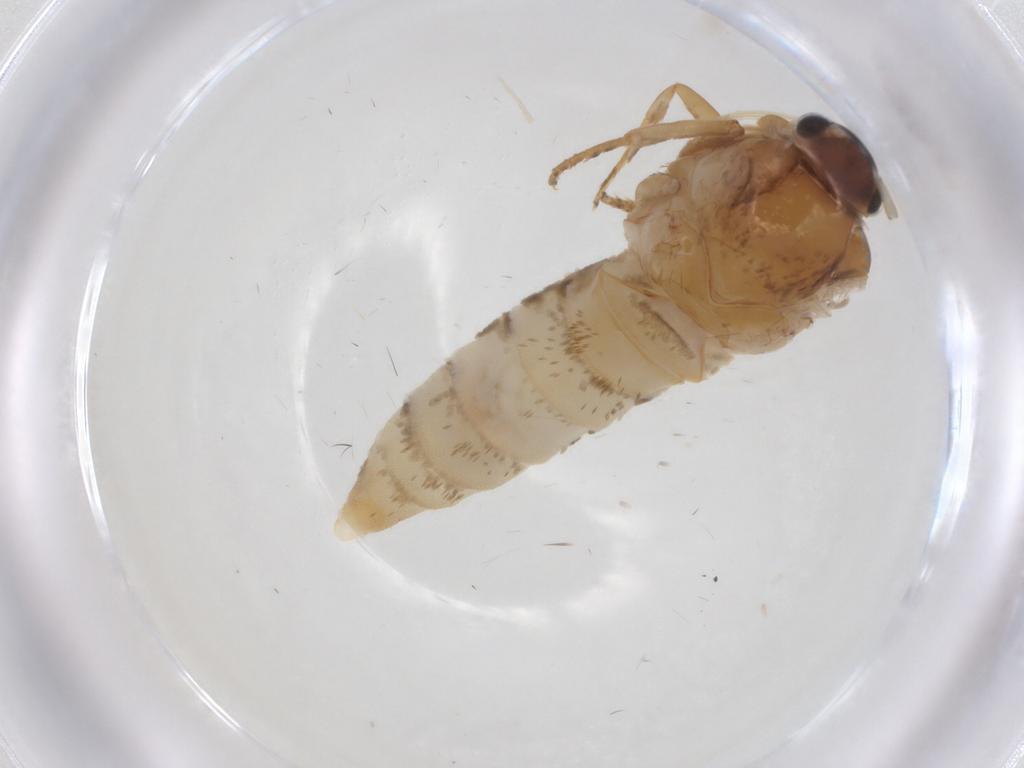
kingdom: Animalia
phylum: Arthropoda
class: Insecta
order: Lepidoptera
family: Oecophoridae
